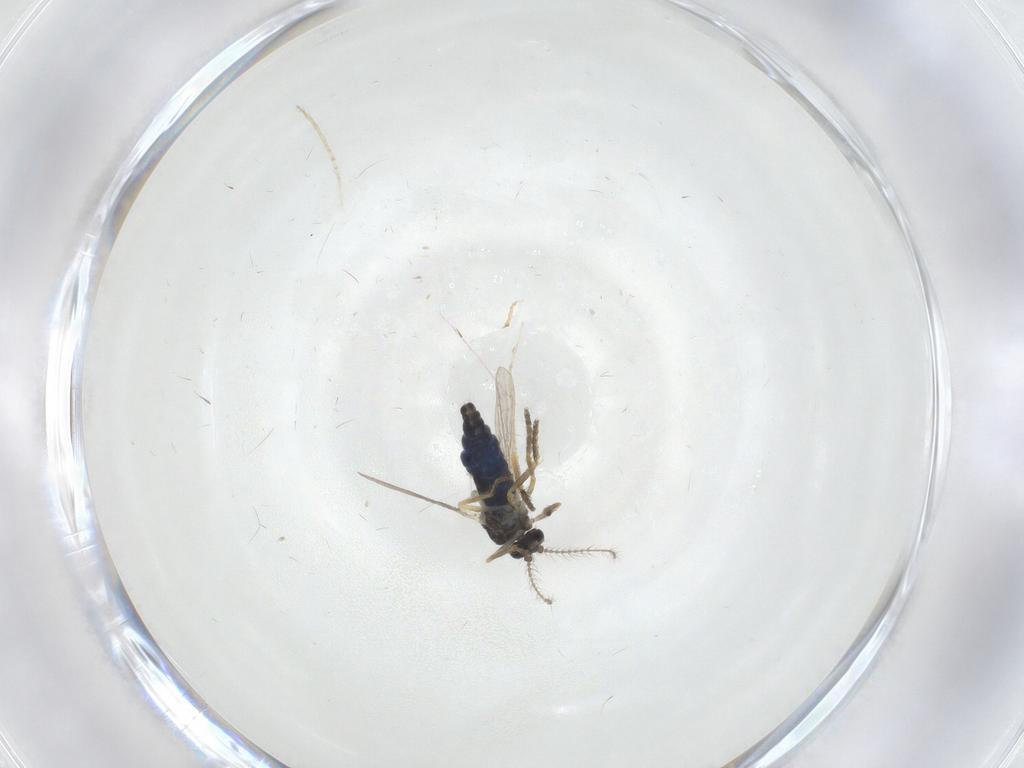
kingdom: Animalia
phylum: Arthropoda
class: Insecta
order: Diptera
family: Ceratopogonidae
